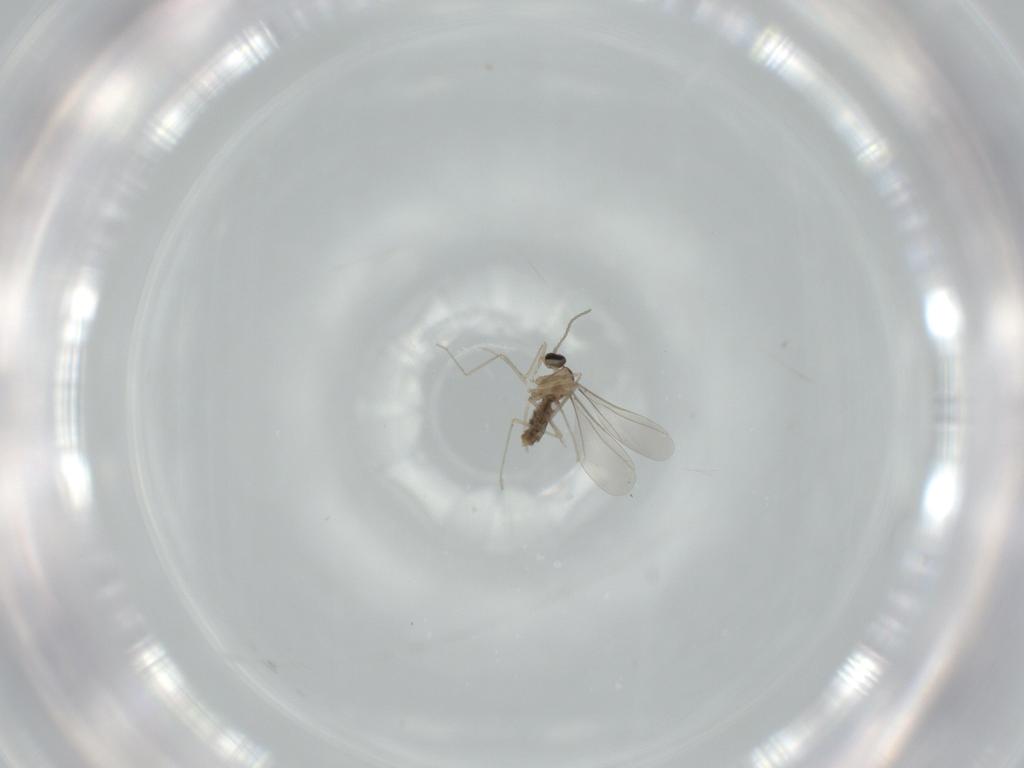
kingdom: Animalia
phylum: Arthropoda
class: Insecta
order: Diptera
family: Cecidomyiidae
